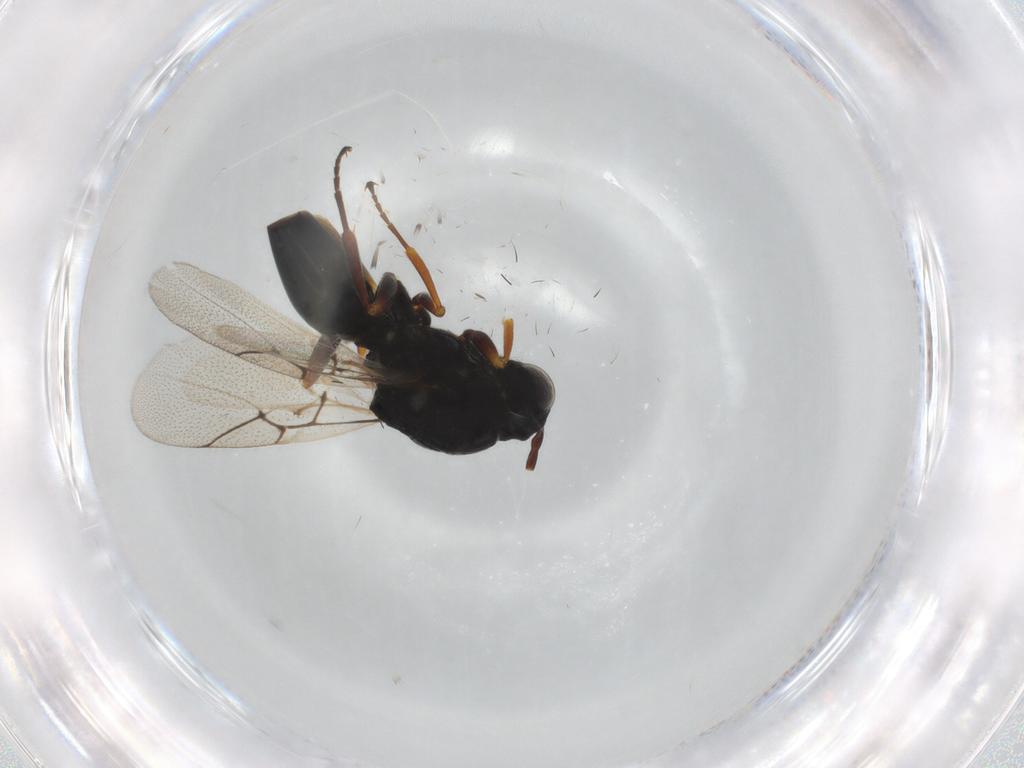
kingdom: Animalia
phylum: Arthropoda
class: Insecta
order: Hymenoptera
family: Figitidae
